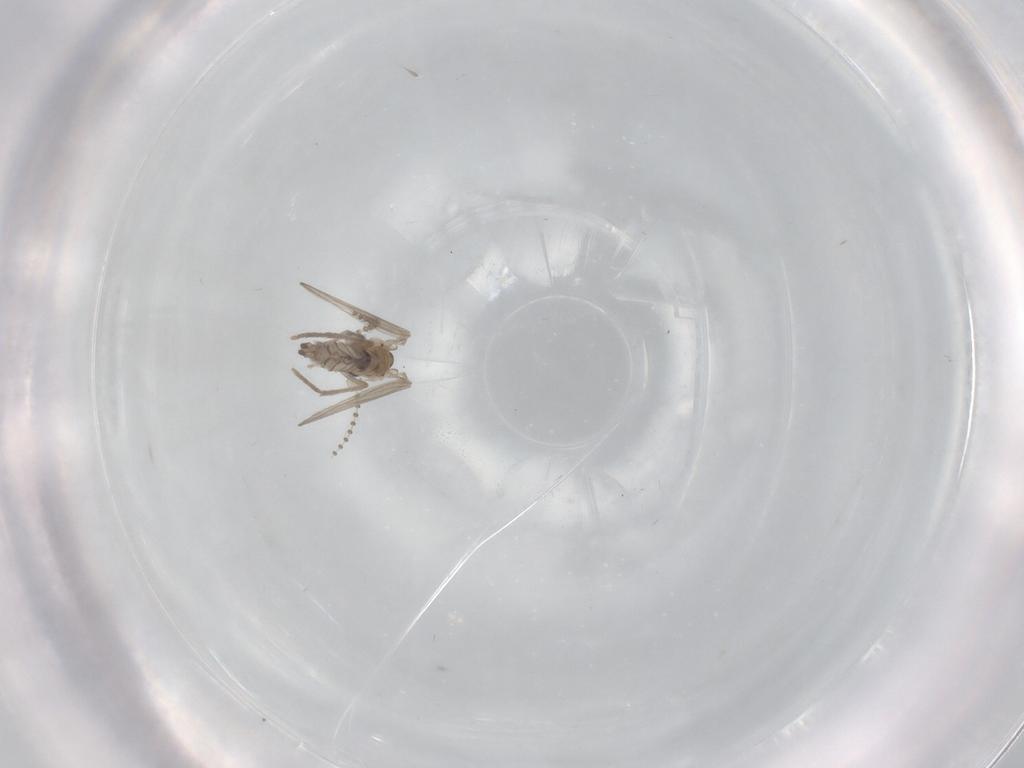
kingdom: Animalia
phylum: Arthropoda
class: Insecta
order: Diptera
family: Psychodidae
